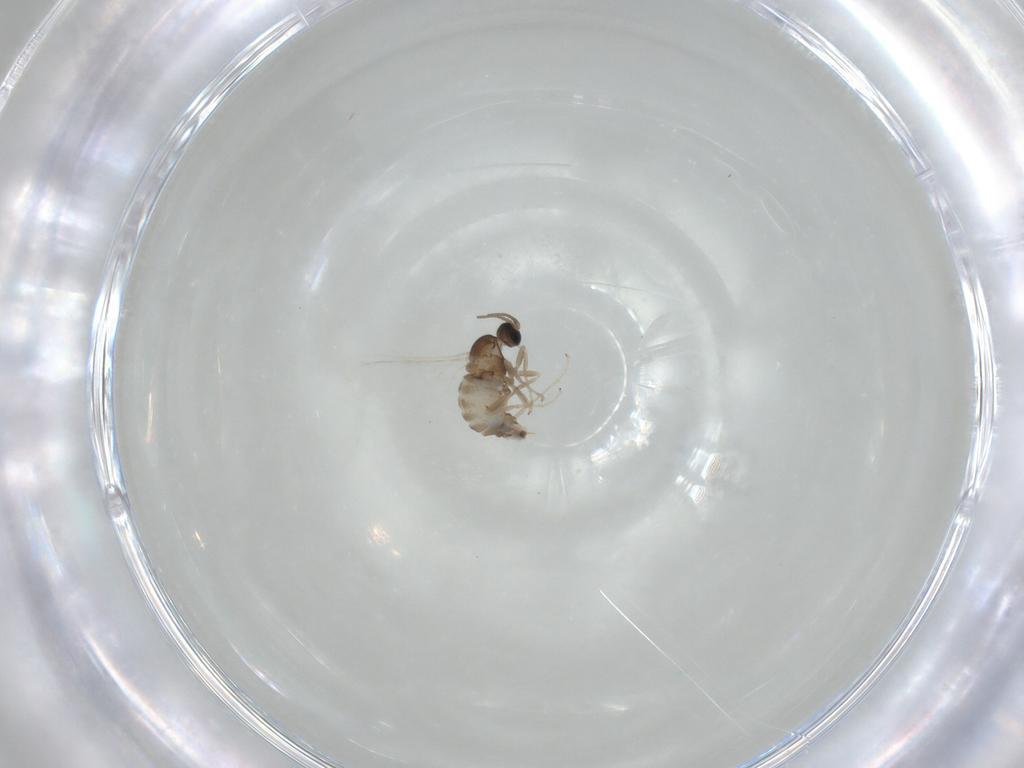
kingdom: Animalia
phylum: Arthropoda
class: Insecta
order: Diptera
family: Cecidomyiidae
